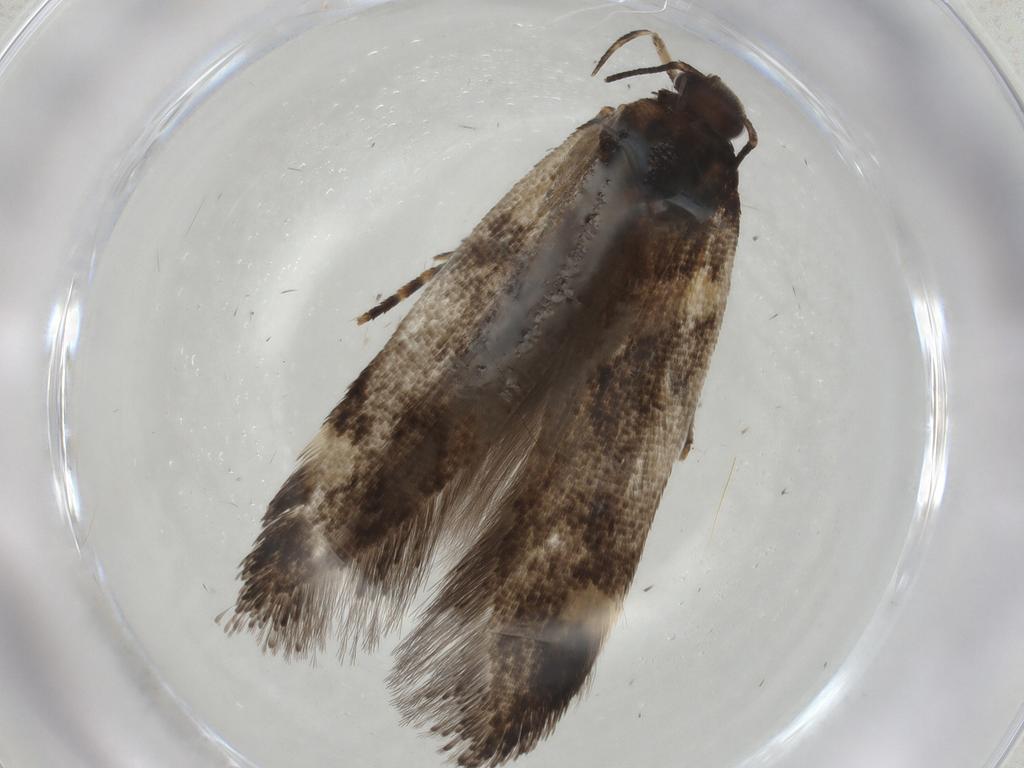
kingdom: Animalia
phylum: Arthropoda
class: Insecta
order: Lepidoptera
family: Gelechiidae
